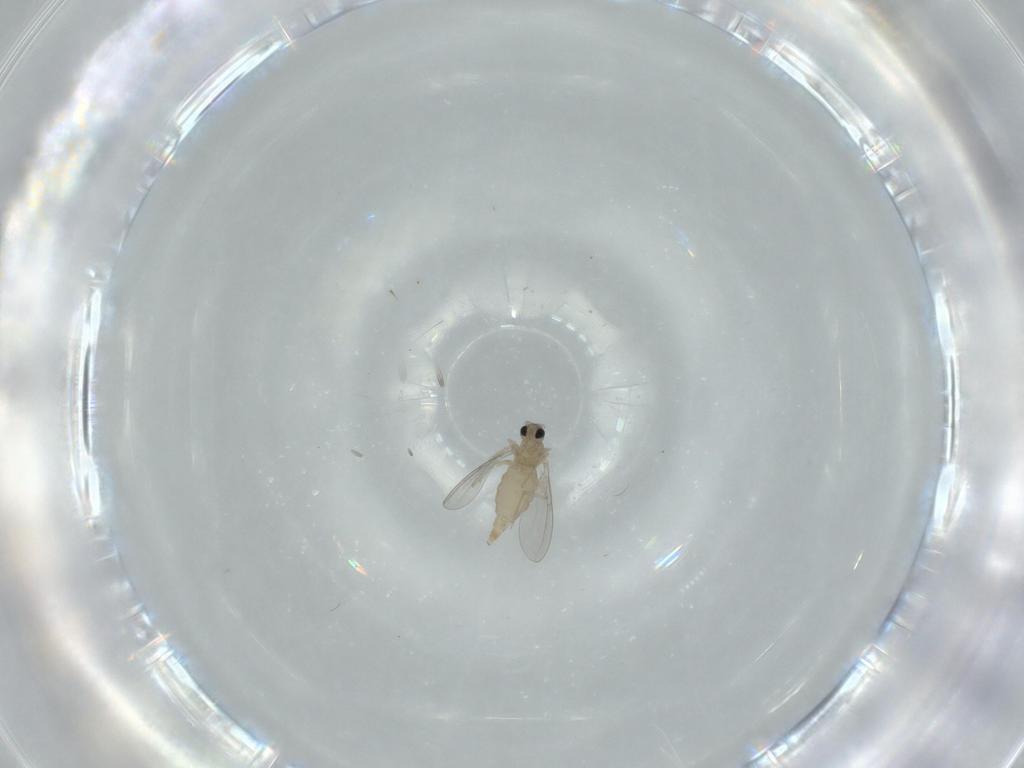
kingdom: Animalia
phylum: Arthropoda
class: Insecta
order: Diptera
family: Cecidomyiidae
